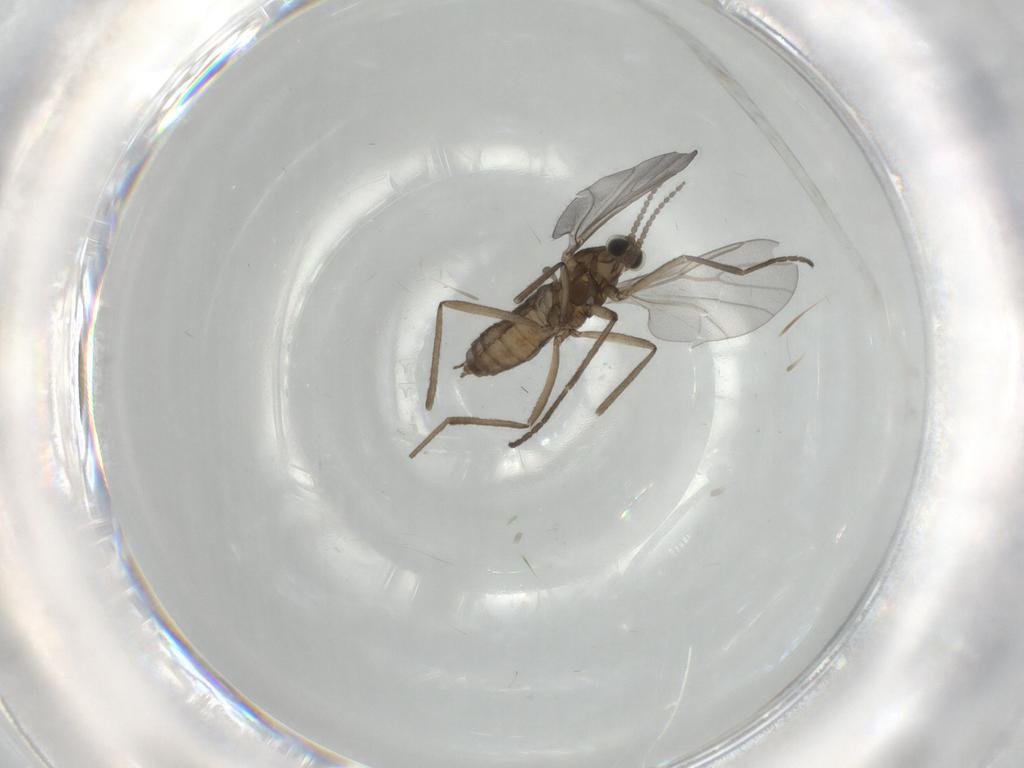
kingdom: Animalia
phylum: Arthropoda
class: Insecta
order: Diptera
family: Cecidomyiidae
